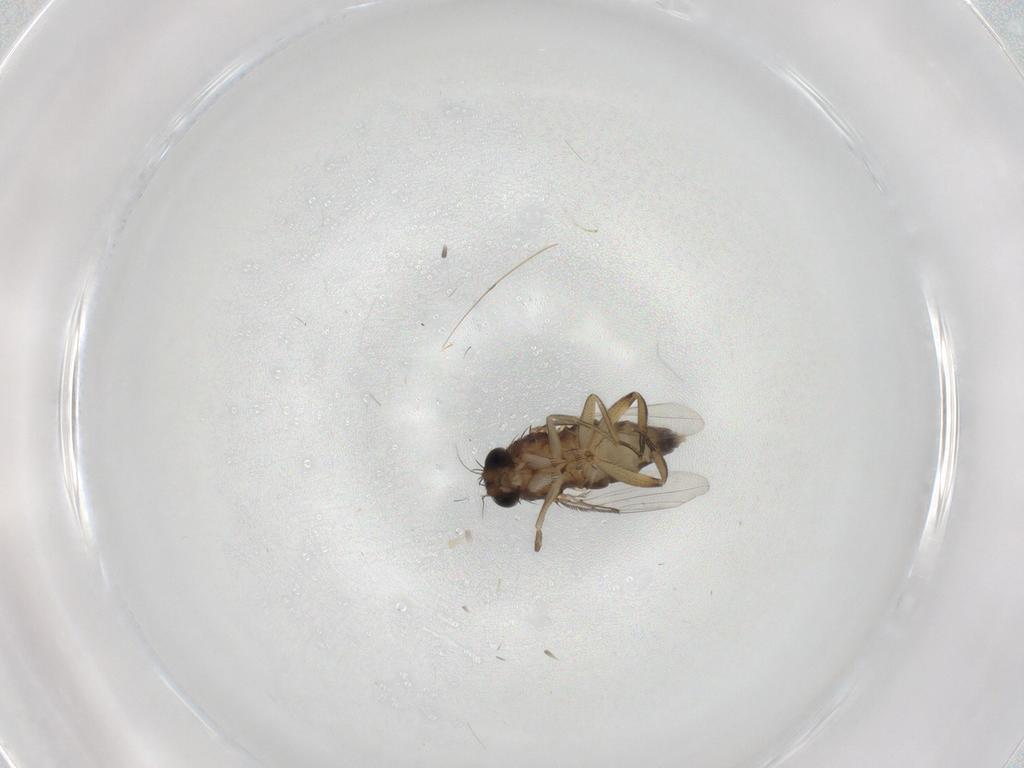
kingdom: Animalia
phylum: Arthropoda
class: Insecta
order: Diptera
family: Phoridae
